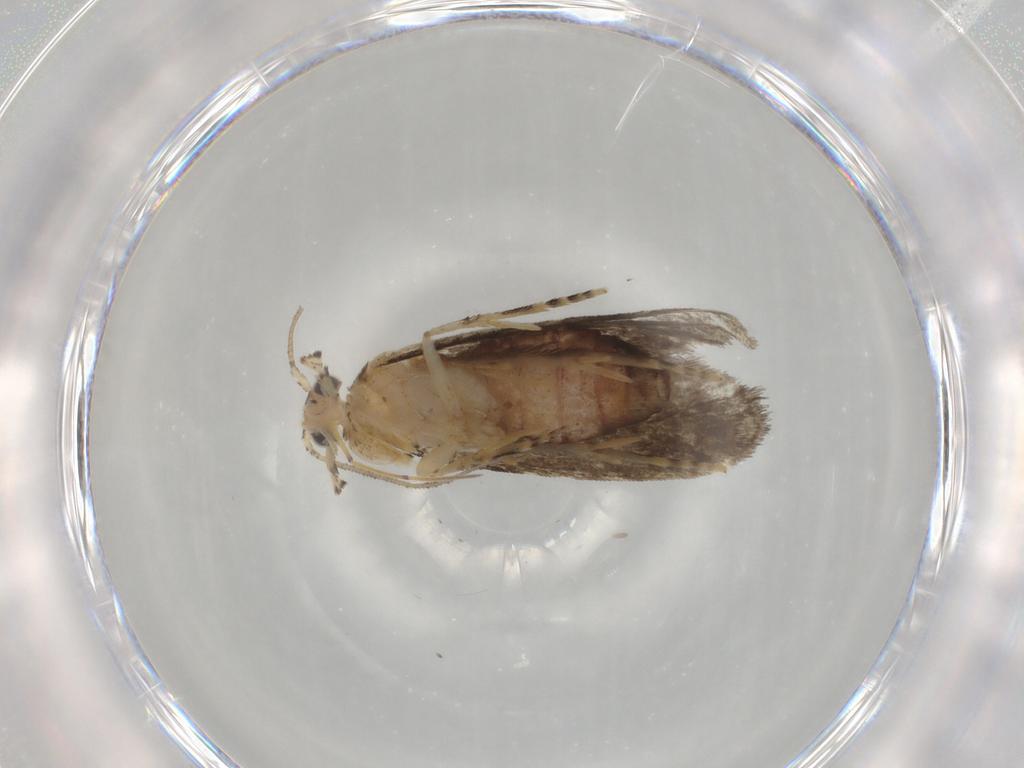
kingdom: Animalia
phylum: Arthropoda
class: Insecta
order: Lepidoptera
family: Tineidae
